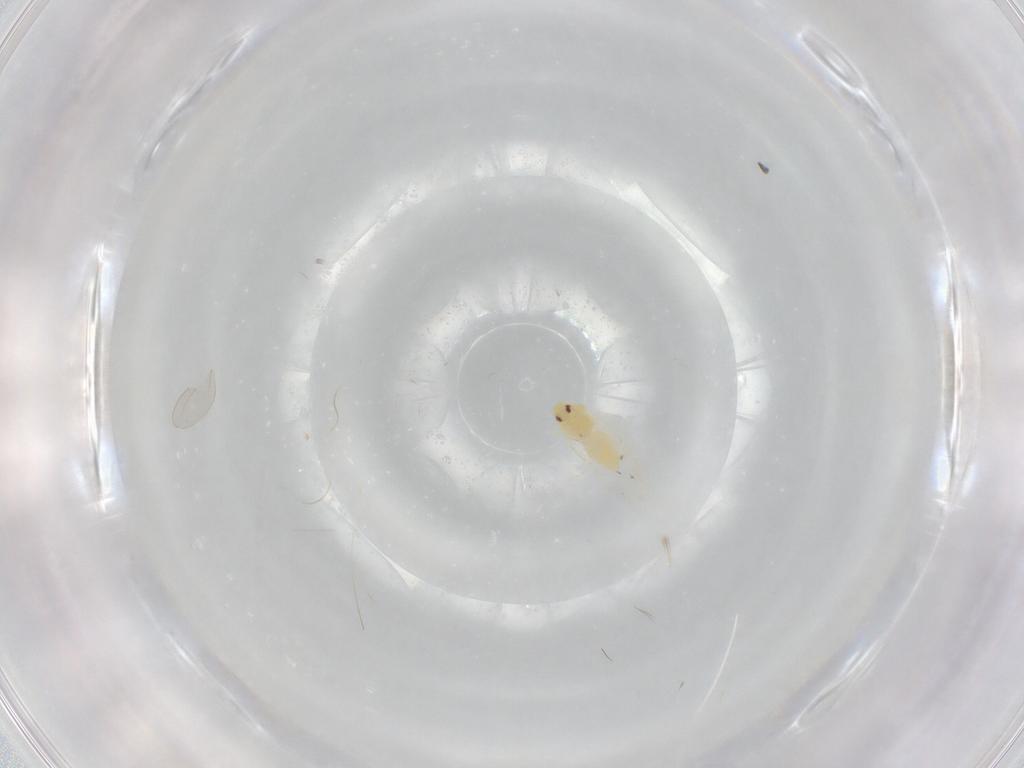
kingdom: Animalia
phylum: Arthropoda
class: Insecta
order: Hemiptera
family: Aleyrodidae
